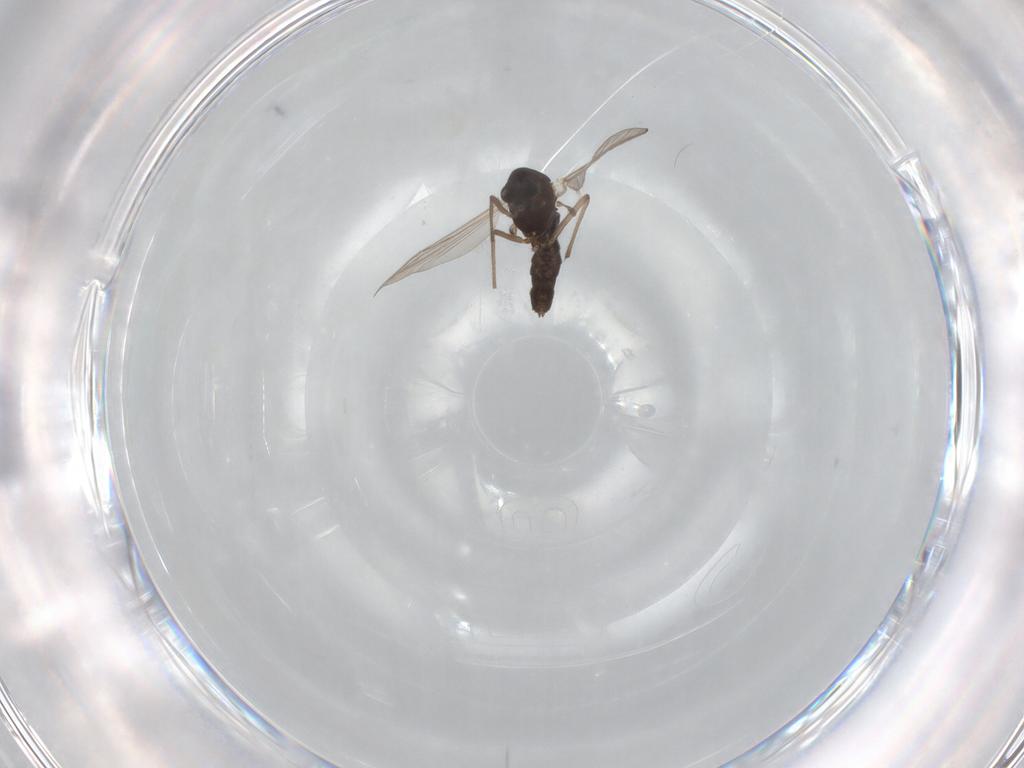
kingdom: Animalia
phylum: Arthropoda
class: Insecta
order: Diptera
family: Chironomidae
